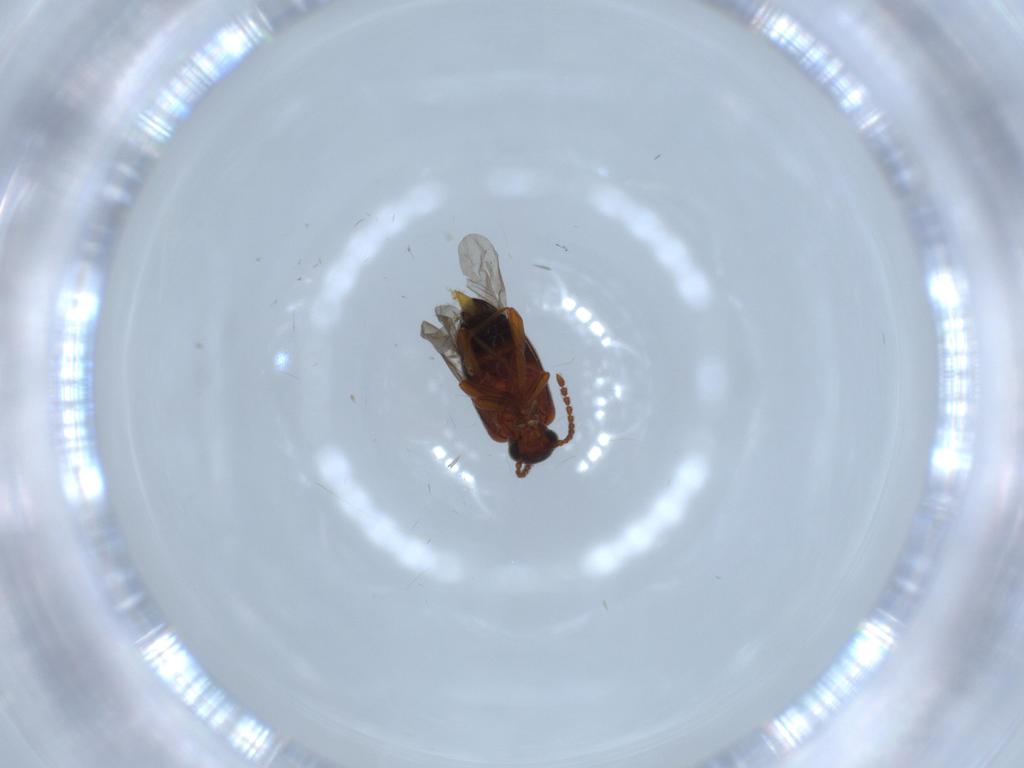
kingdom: Animalia
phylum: Arthropoda
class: Insecta
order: Coleoptera
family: Aderidae
